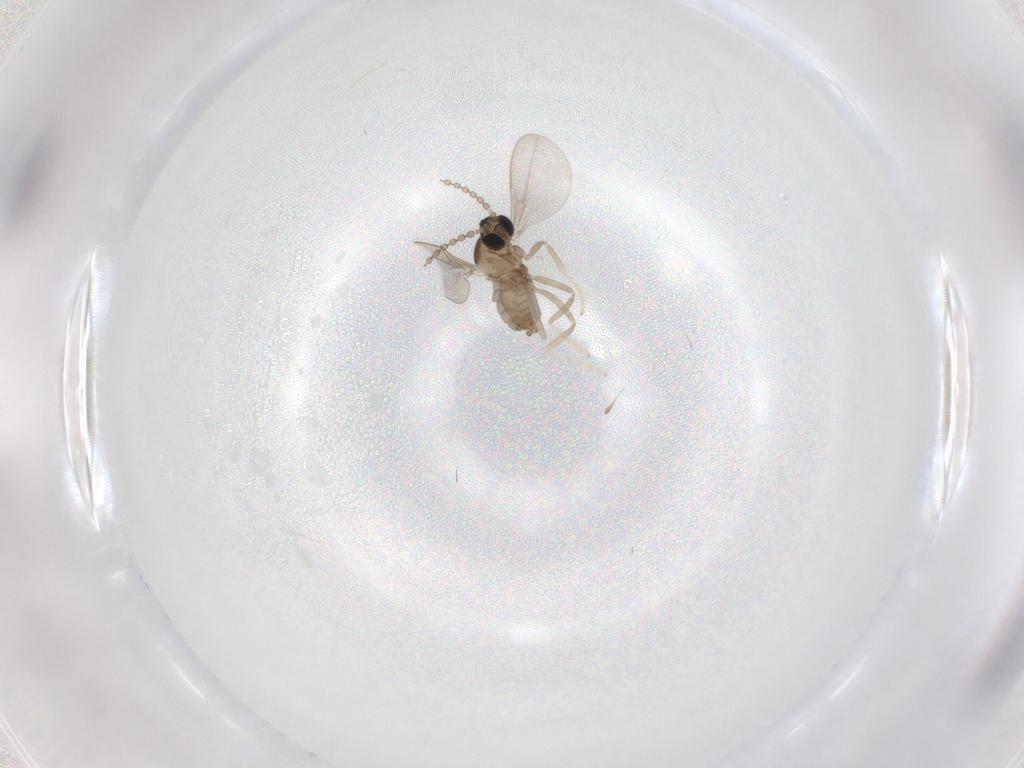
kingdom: Animalia
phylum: Arthropoda
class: Insecta
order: Diptera
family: Cecidomyiidae
